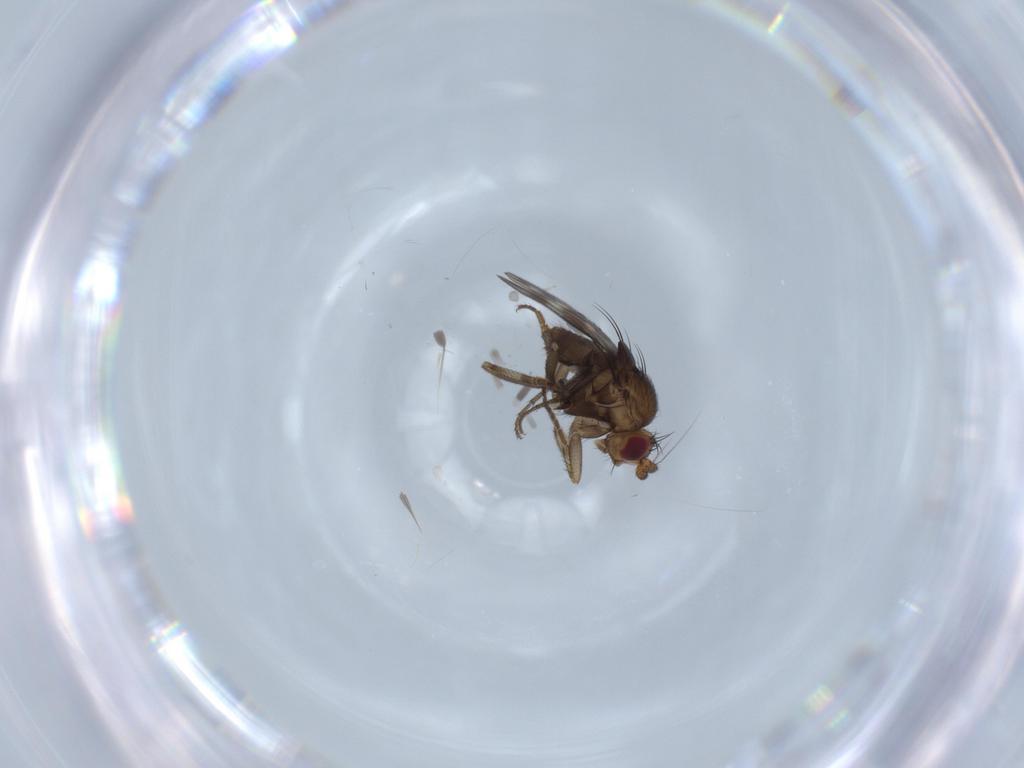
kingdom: Animalia
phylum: Arthropoda
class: Insecta
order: Diptera
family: Sphaeroceridae
